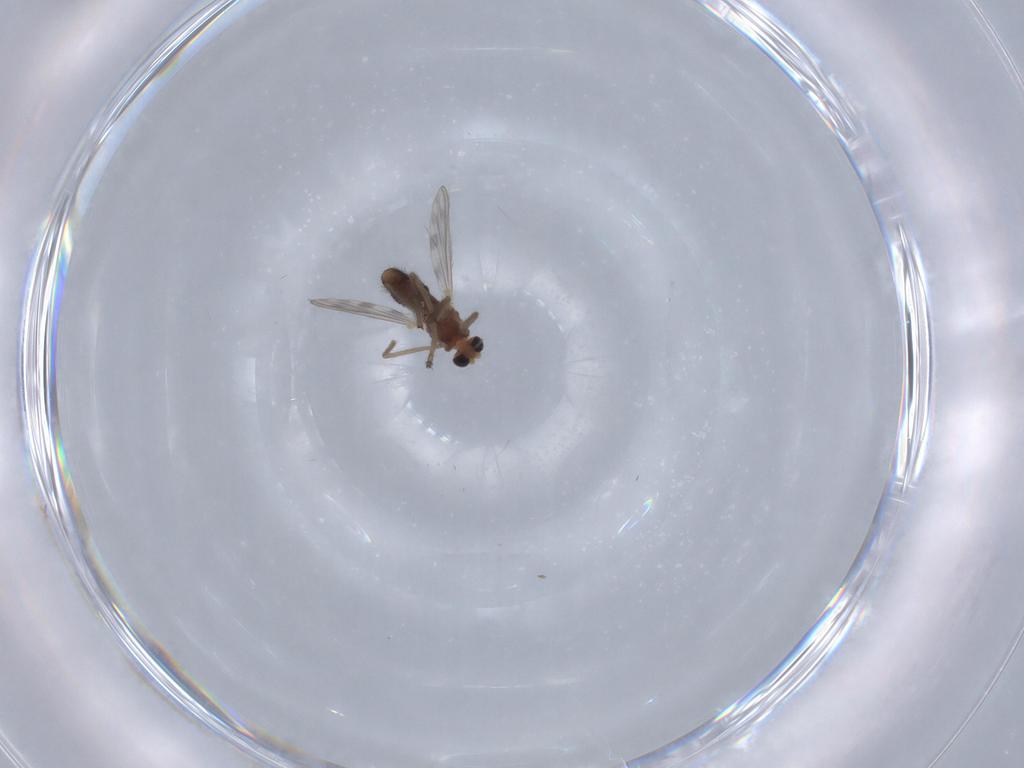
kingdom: Animalia
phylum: Arthropoda
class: Insecta
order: Diptera
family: Chironomidae
